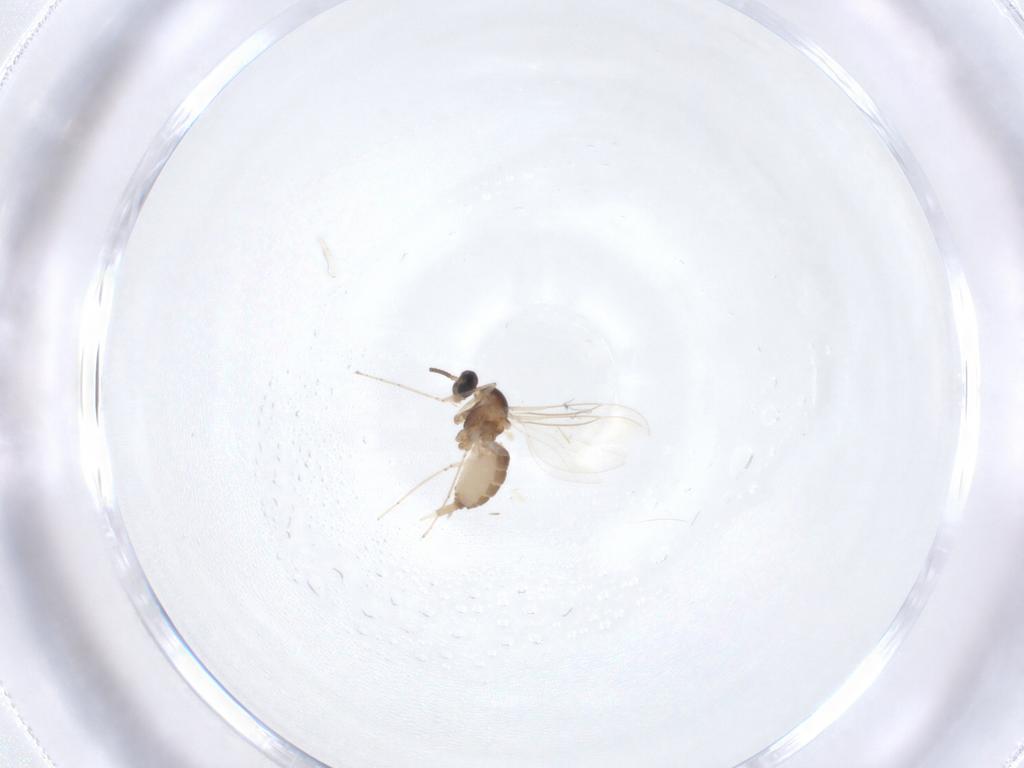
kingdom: Animalia
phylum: Arthropoda
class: Insecta
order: Diptera
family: Cecidomyiidae
